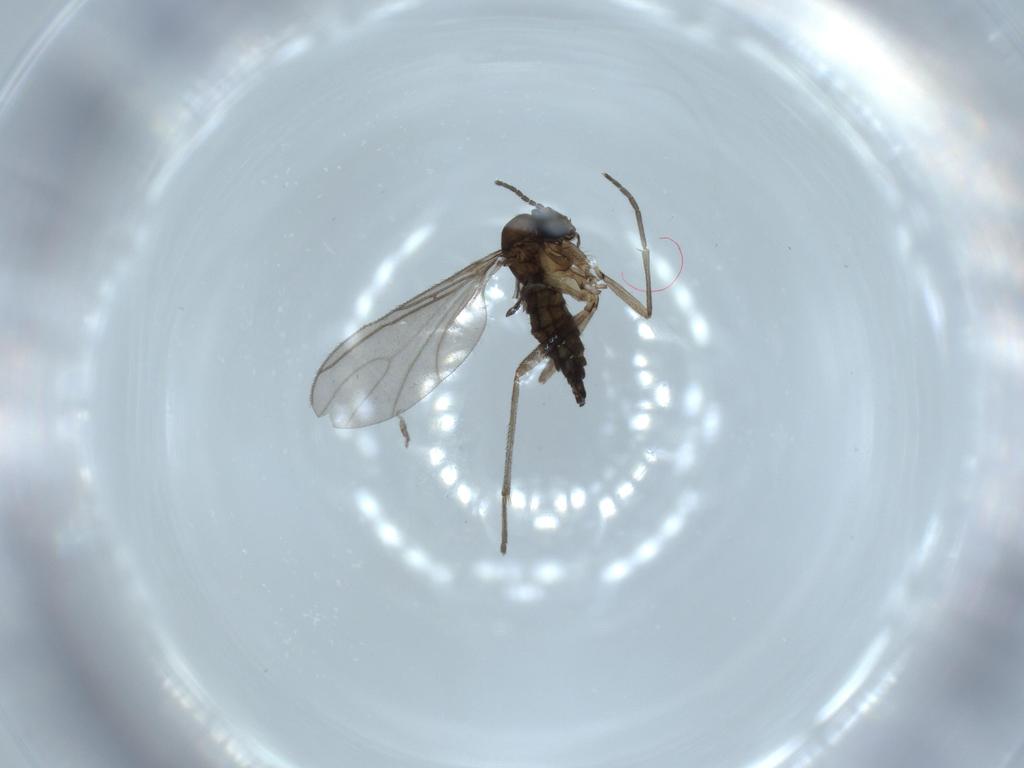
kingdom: Animalia
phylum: Arthropoda
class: Insecta
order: Diptera
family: Sciaridae
